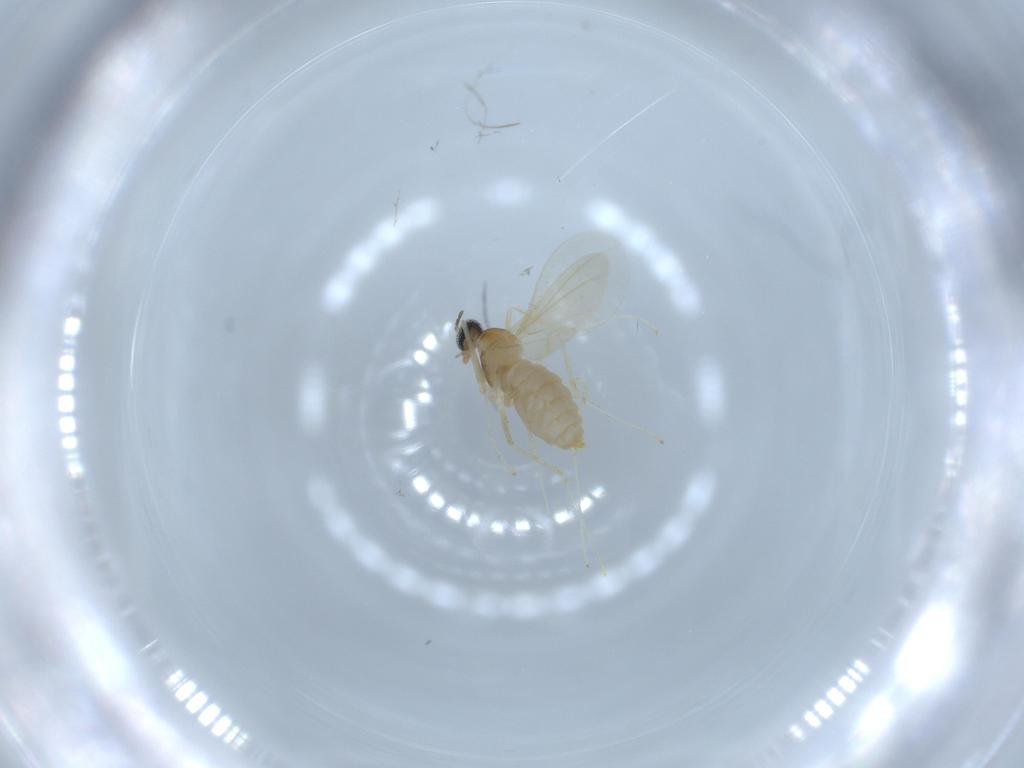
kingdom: Animalia
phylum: Arthropoda
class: Insecta
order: Diptera
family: Cecidomyiidae
